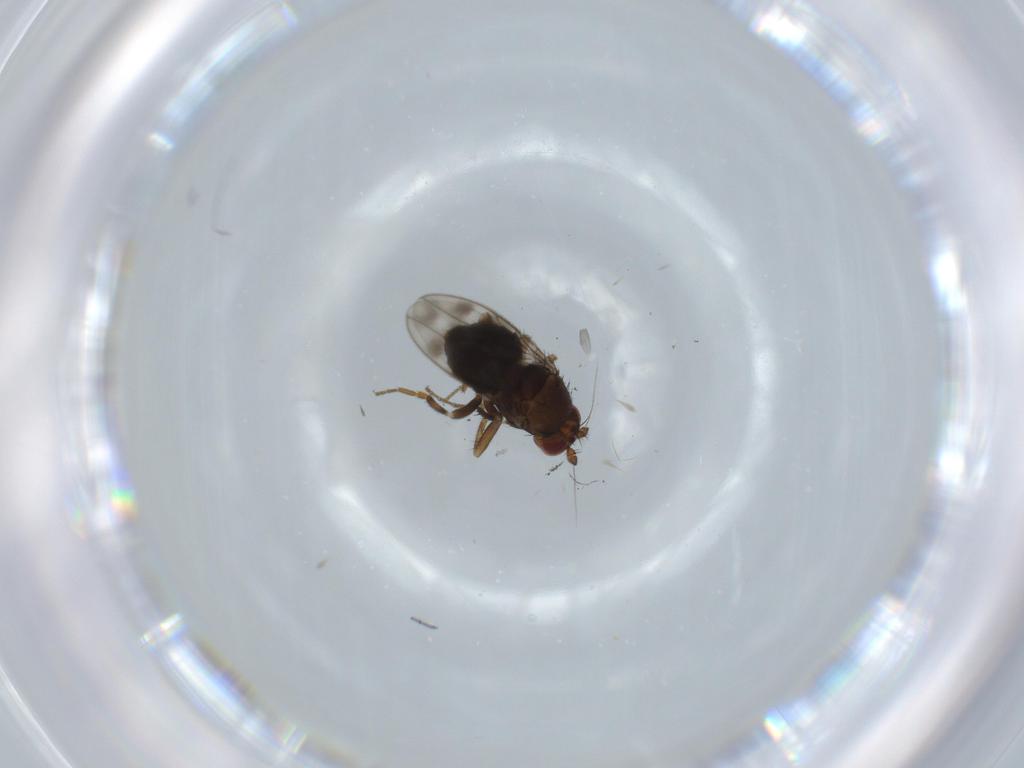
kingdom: Animalia
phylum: Arthropoda
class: Insecta
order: Diptera
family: Sphaeroceridae
